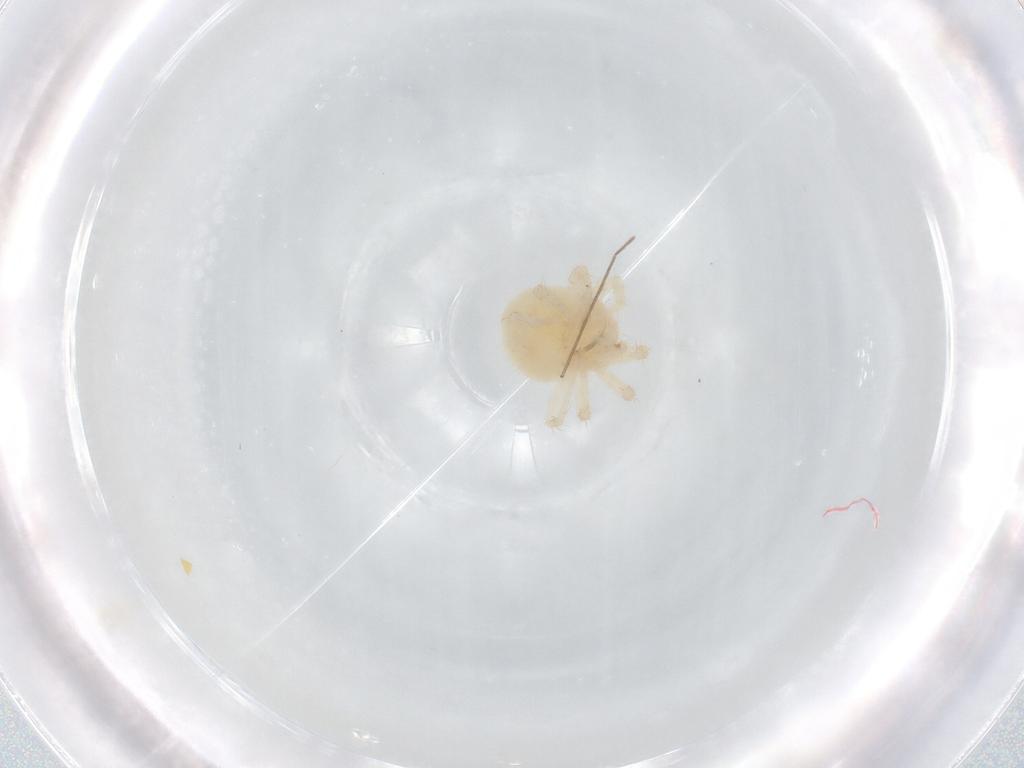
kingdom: Animalia
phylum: Arthropoda
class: Arachnida
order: Trombidiformes
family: Anystidae
